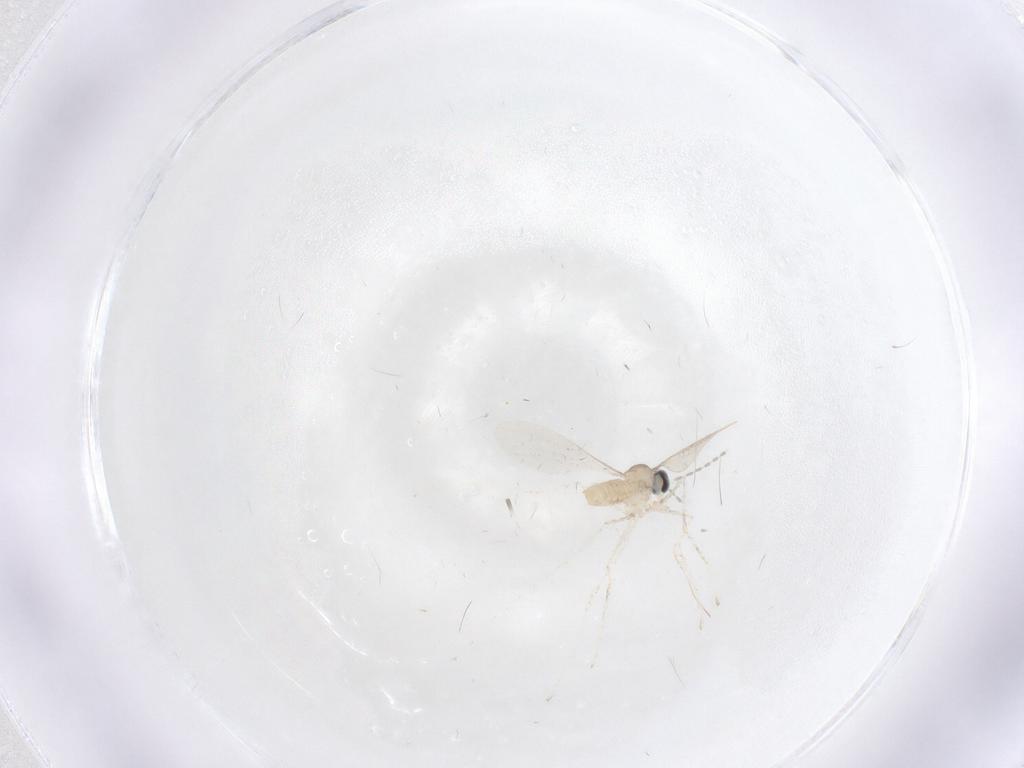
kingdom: Animalia
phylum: Arthropoda
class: Insecta
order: Diptera
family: Cecidomyiidae
